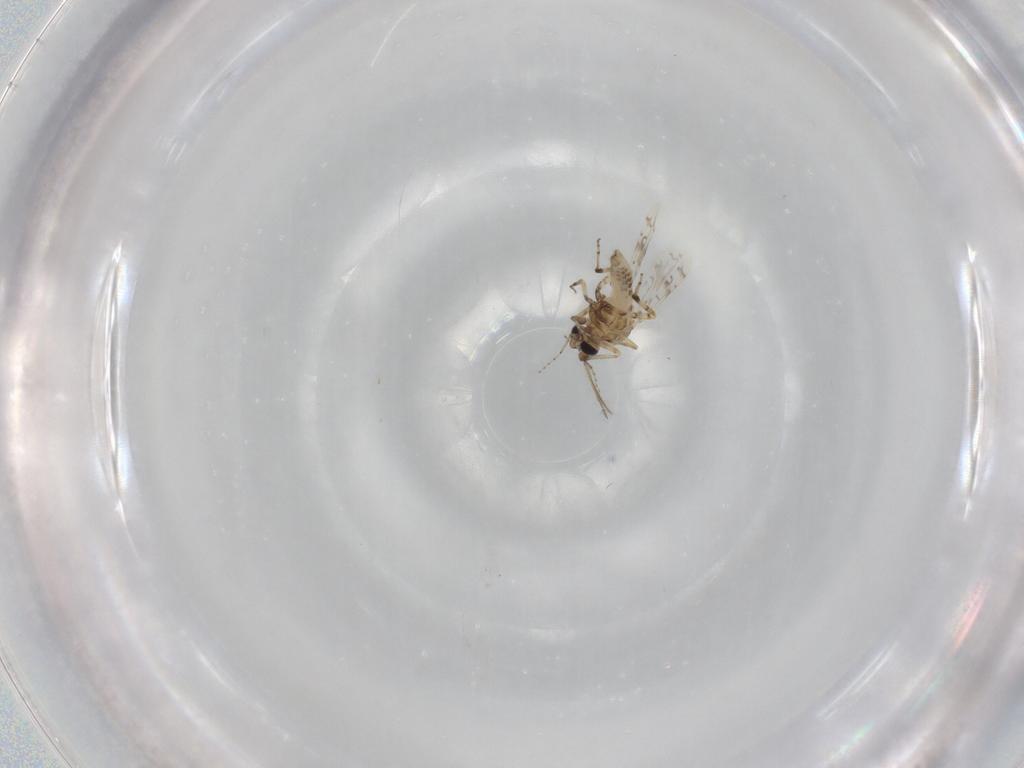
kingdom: Animalia
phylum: Arthropoda
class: Insecta
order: Diptera
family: Ceratopogonidae
